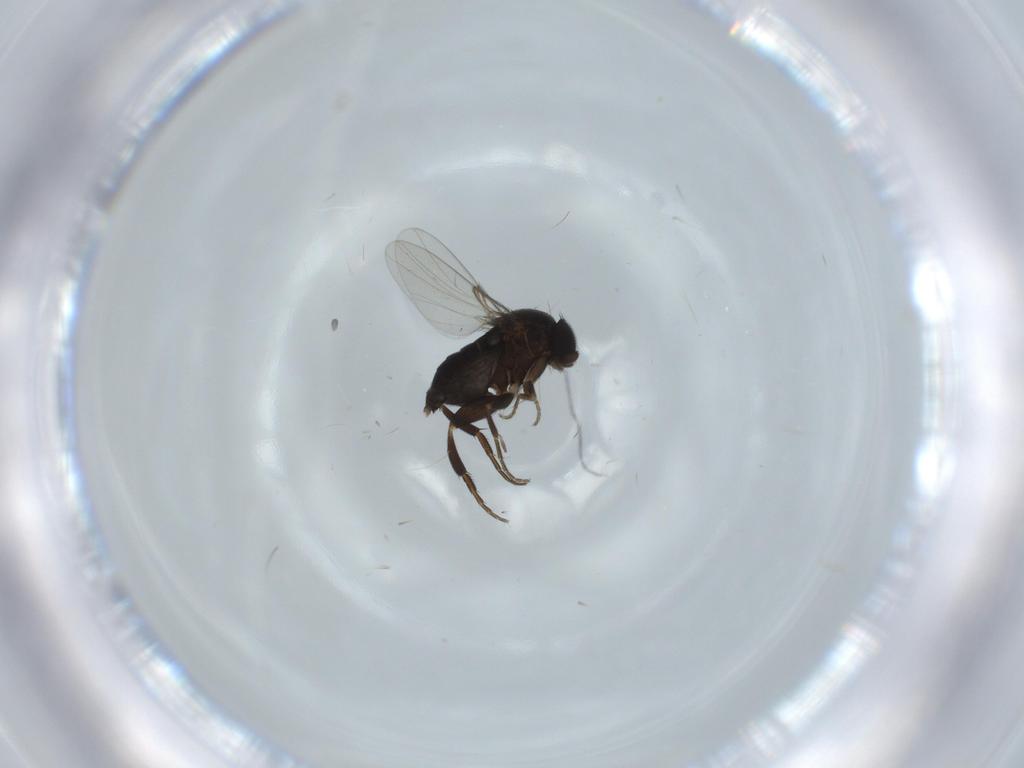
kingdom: Animalia
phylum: Arthropoda
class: Insecta
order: Diptera
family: Phoridae
